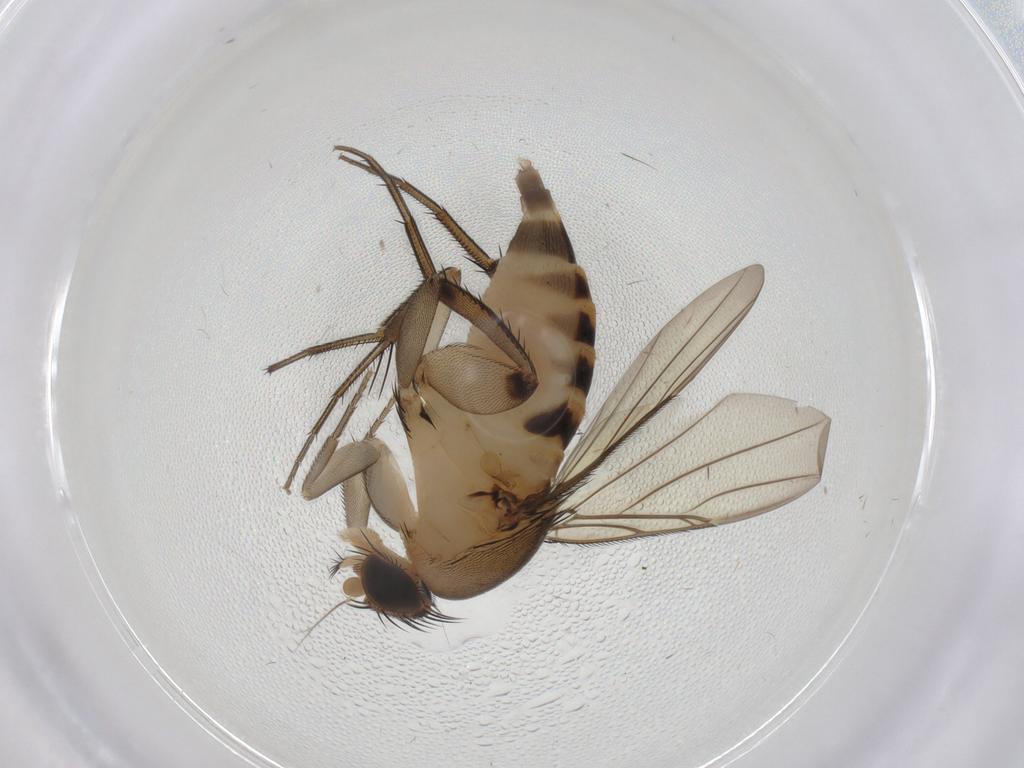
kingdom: Animalia
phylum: Arthropoda
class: Insecta
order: Diptera
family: Phoridae
